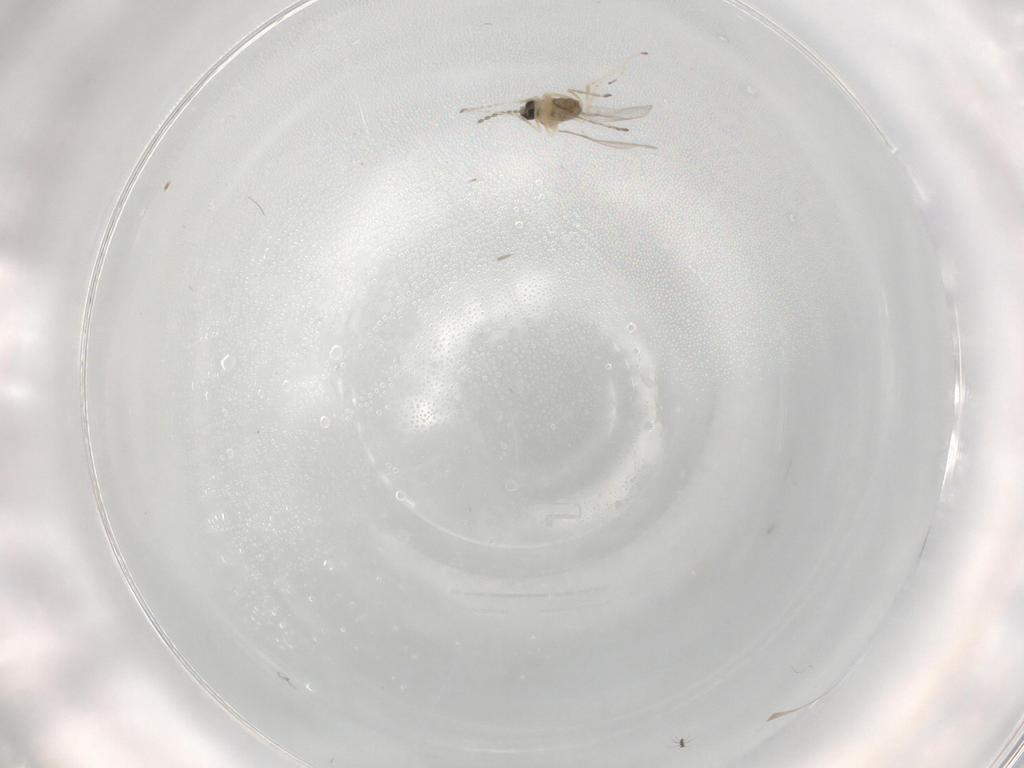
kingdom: Animalia
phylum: Arthropoda
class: Insecta
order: Diptera
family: Cecidomyiidae
